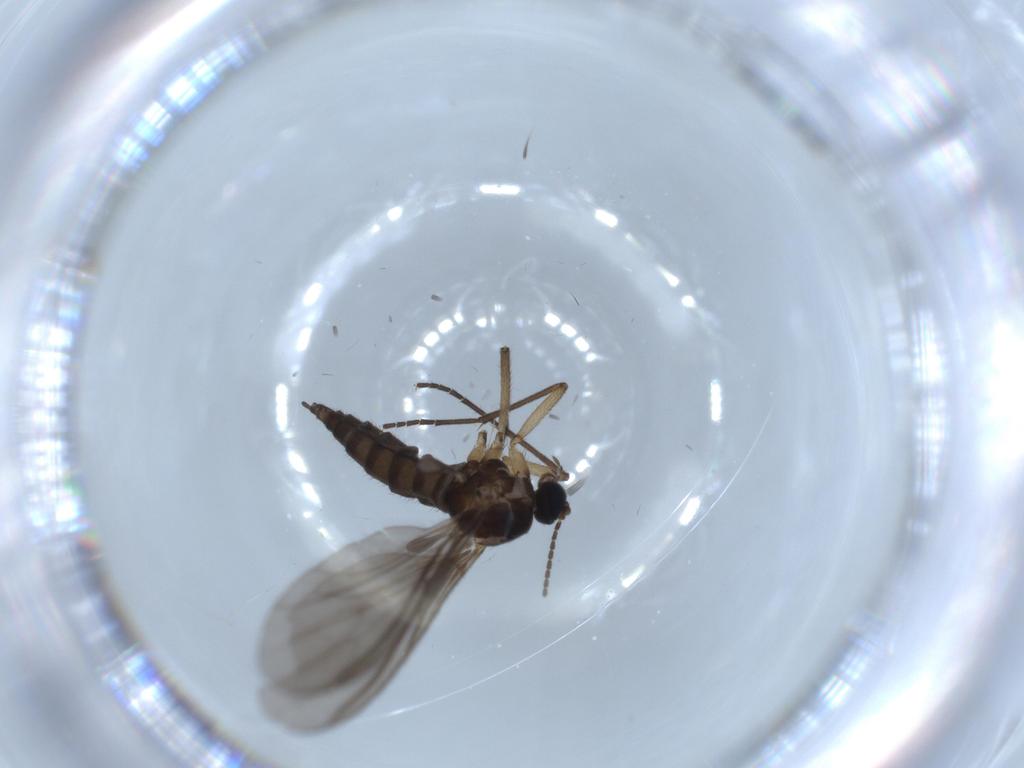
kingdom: Animalia
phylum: Arthropoda
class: Insecta
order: Diptera
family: Sciaridae
